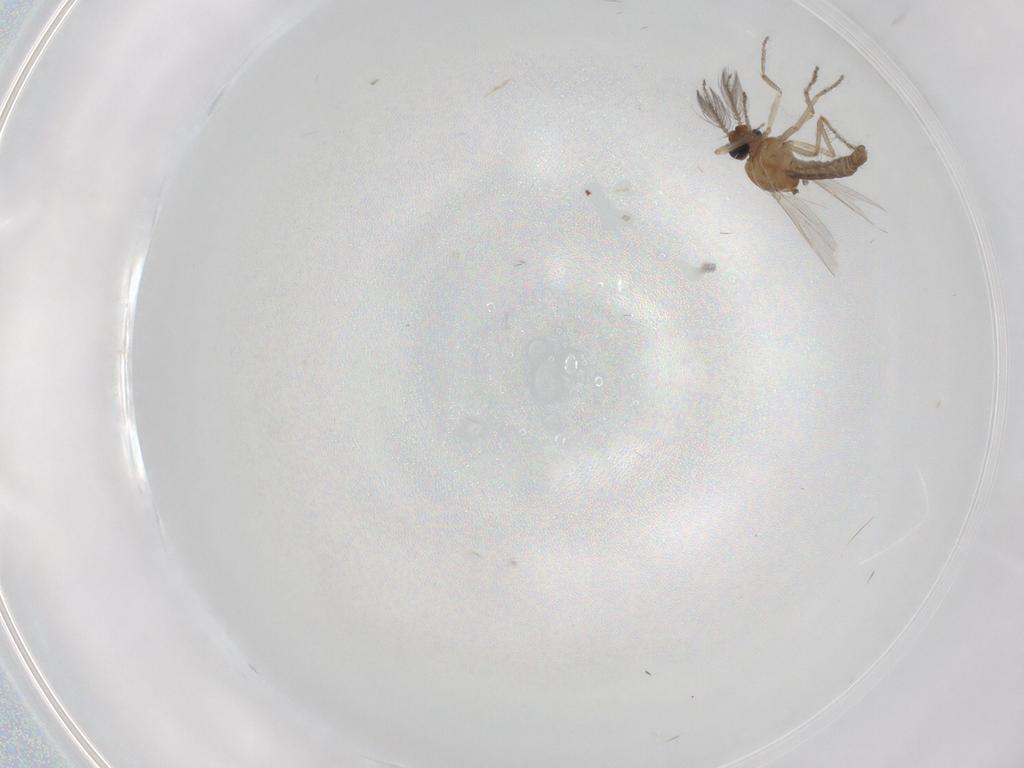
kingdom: Animalia
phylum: Arthropoda
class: Insecta
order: Diptera
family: Ceratopogonidae
